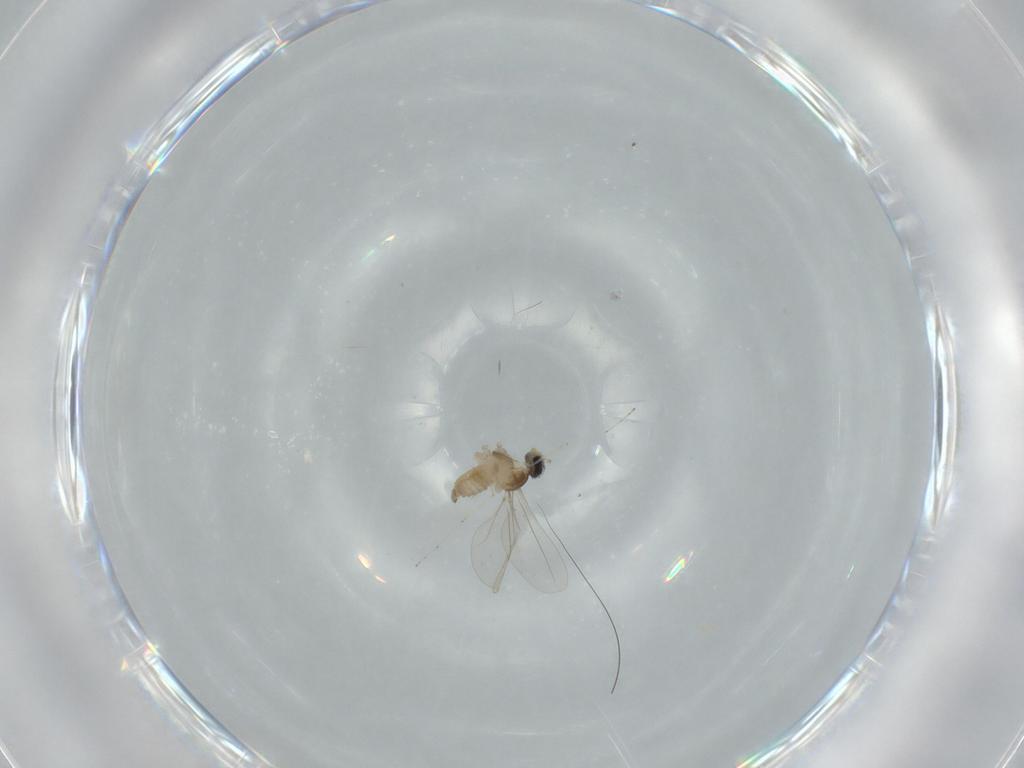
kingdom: Animalia
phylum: Arthropoda
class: Insecta
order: Diptera
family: Cecidomyiidae
